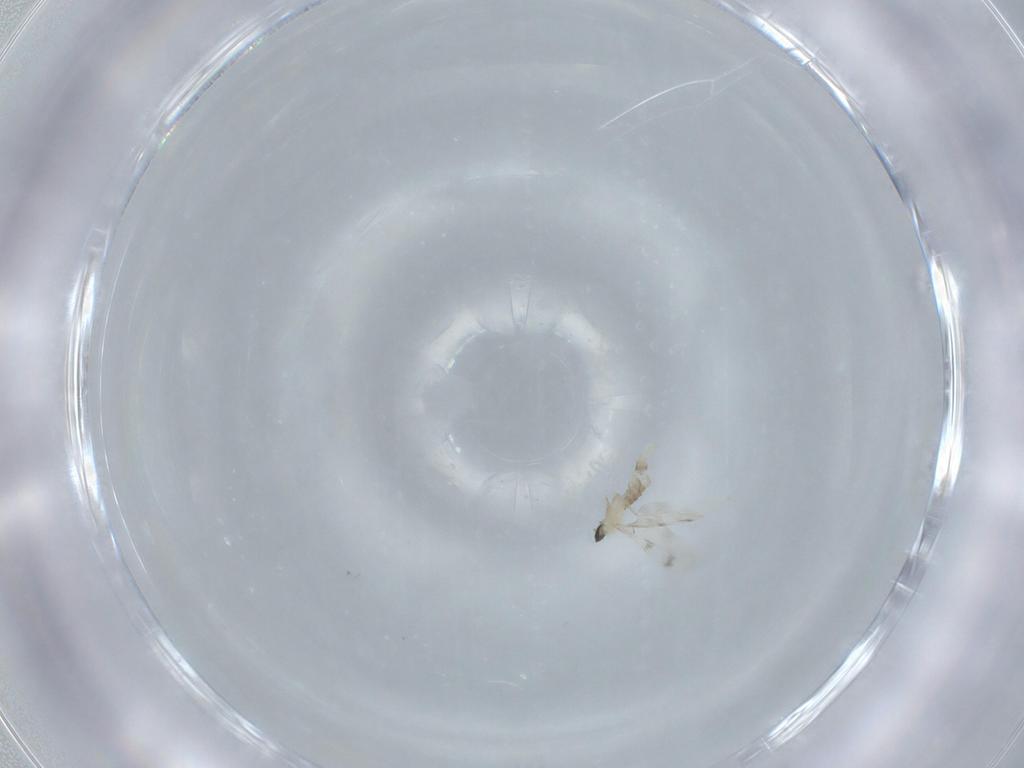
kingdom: Animalia
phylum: Arthropoda
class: Insecta
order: Diptera
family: Cecidomyiidae
